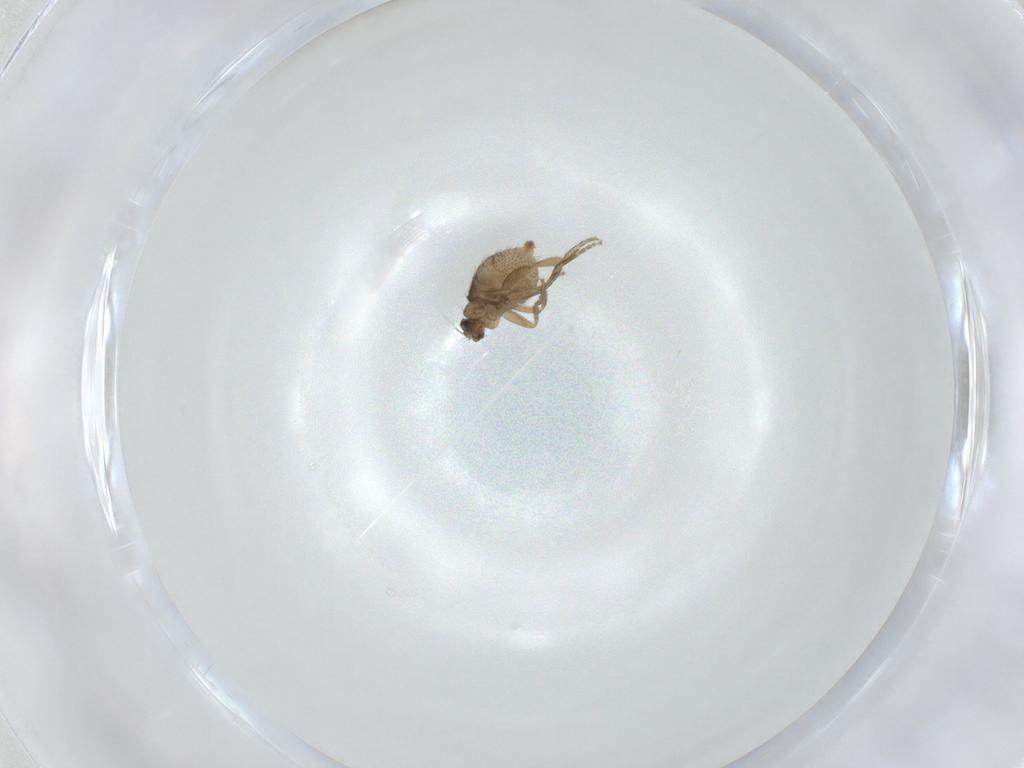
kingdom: Animalia
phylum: Arthropoda
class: Insecta
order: Diptera
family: Phoridae
